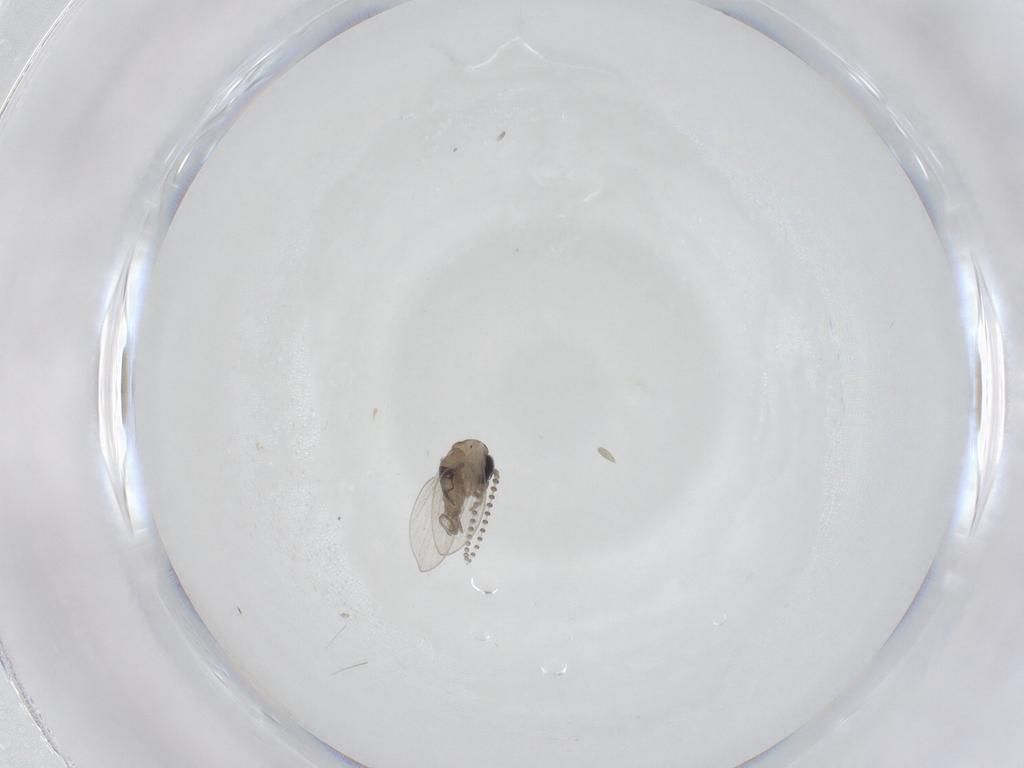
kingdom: Animalia
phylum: Arthropoda
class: Insecta
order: Diptera
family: Psychodidae
